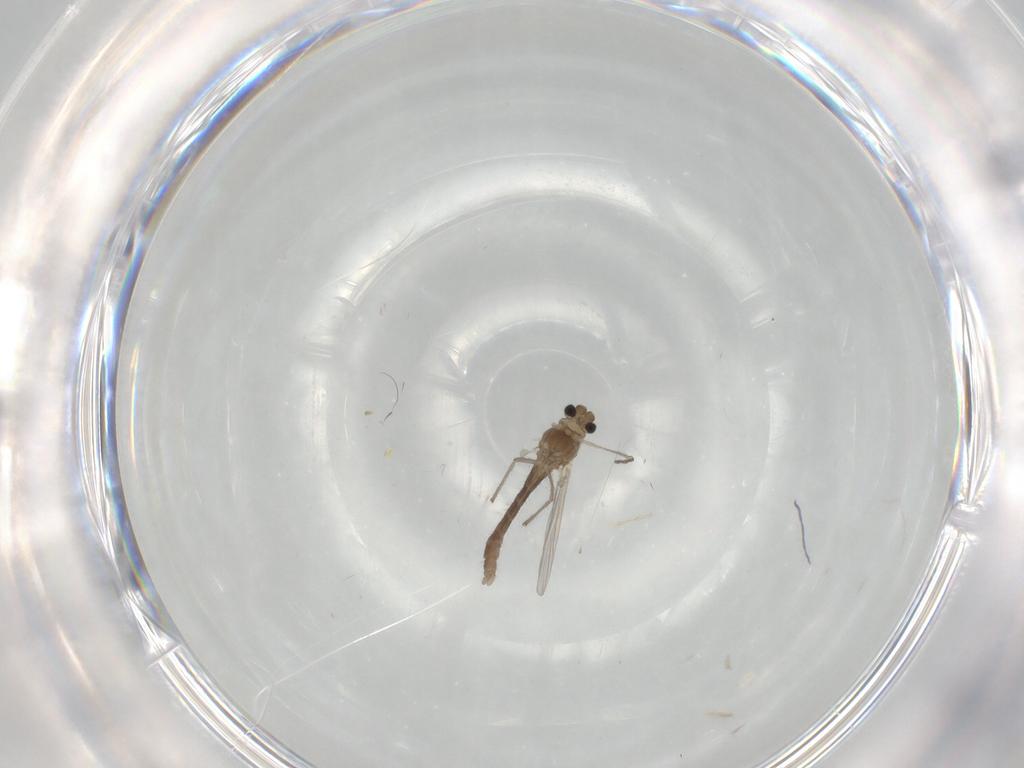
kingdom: Animalia
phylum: Arthropoda
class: Insecta
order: Diptera
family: Chironomidae
